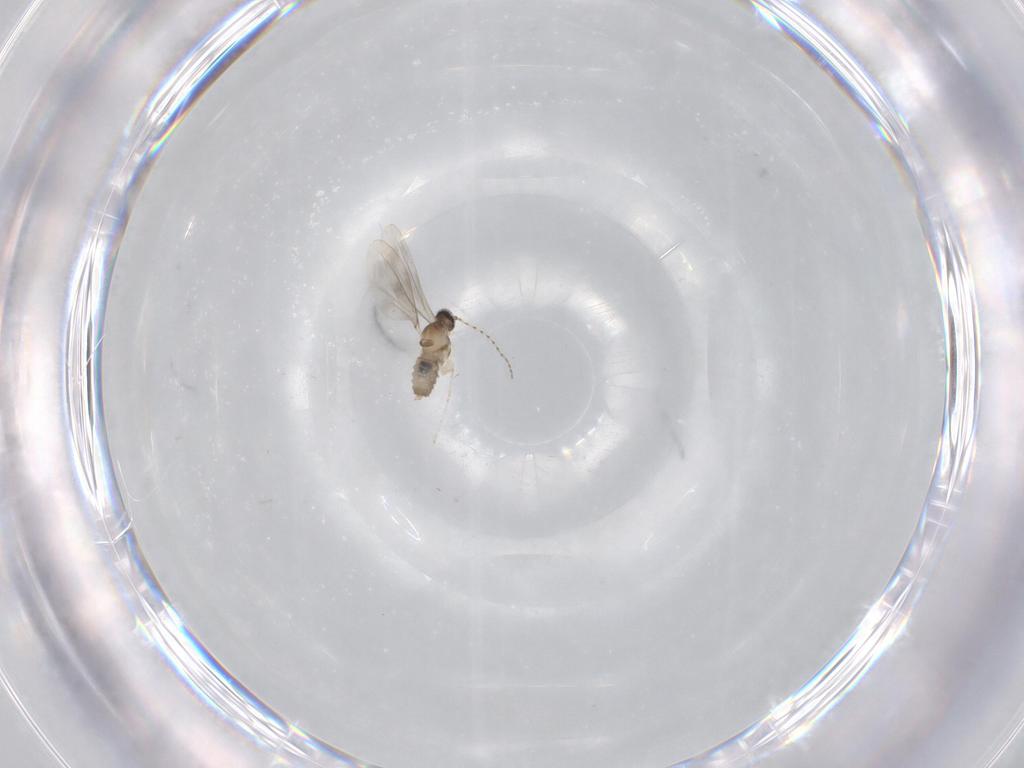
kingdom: Animalia
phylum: Arthropoda
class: Insecta
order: Diptera
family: Cecidomyiidae
